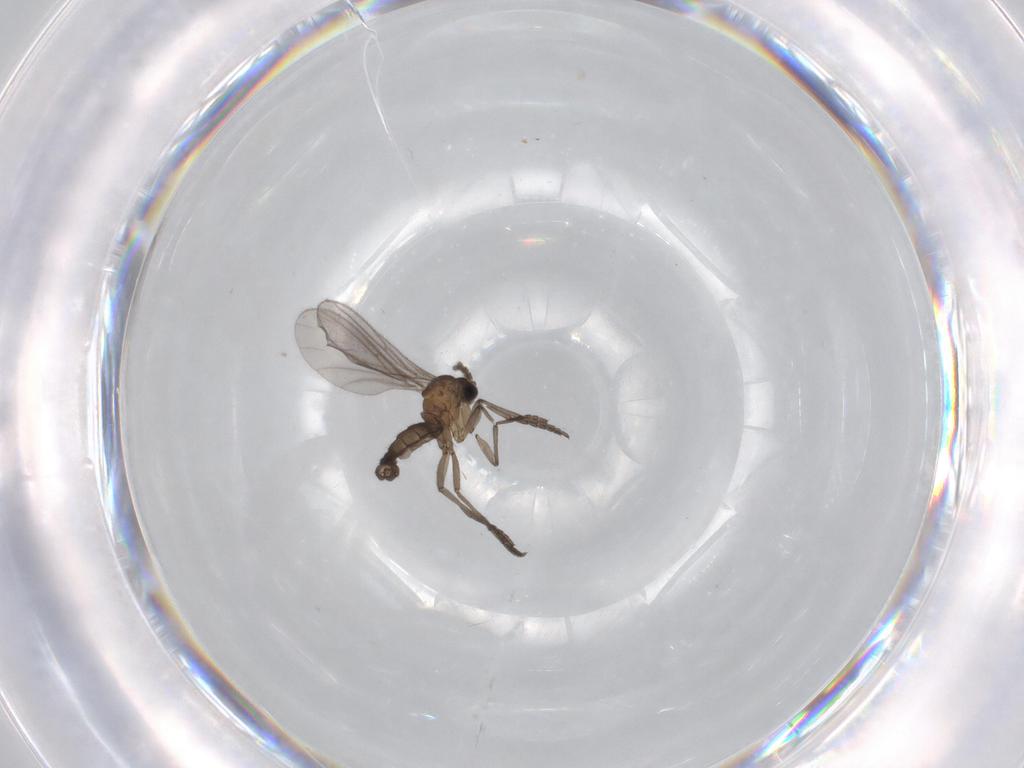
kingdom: Animalia
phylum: Arthropoda
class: Insecta
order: Diptera
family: Sciaridae
